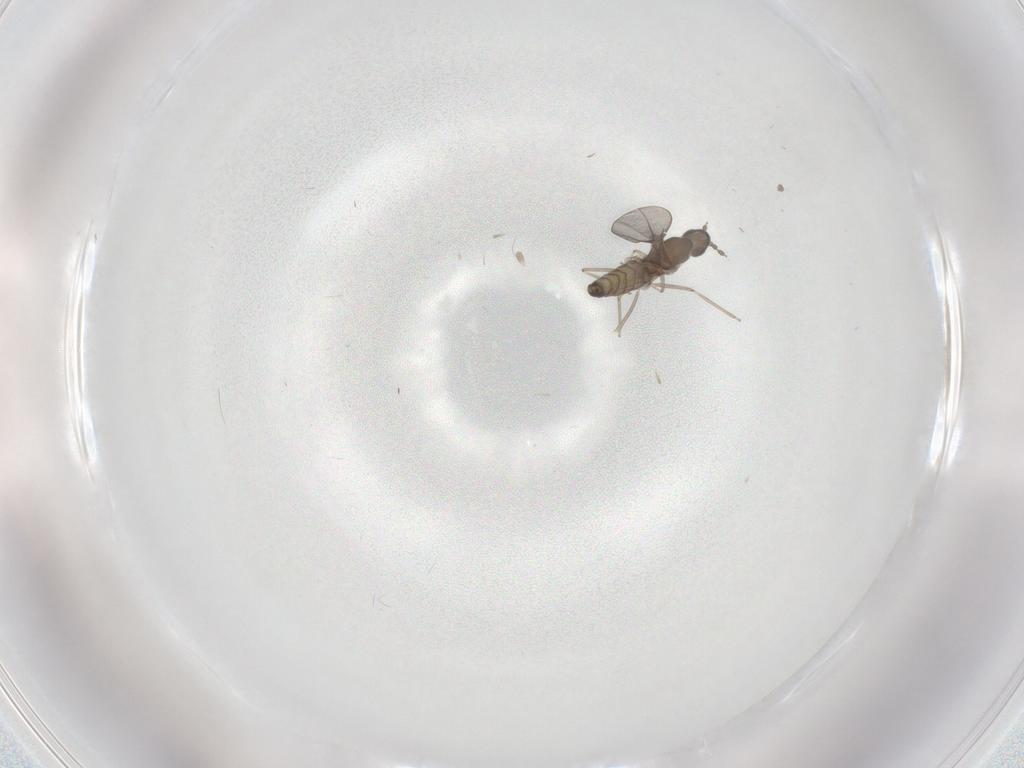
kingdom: Animalia
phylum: Arthropoda
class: Insecta
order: Diptera
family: Cecidomyiidae
